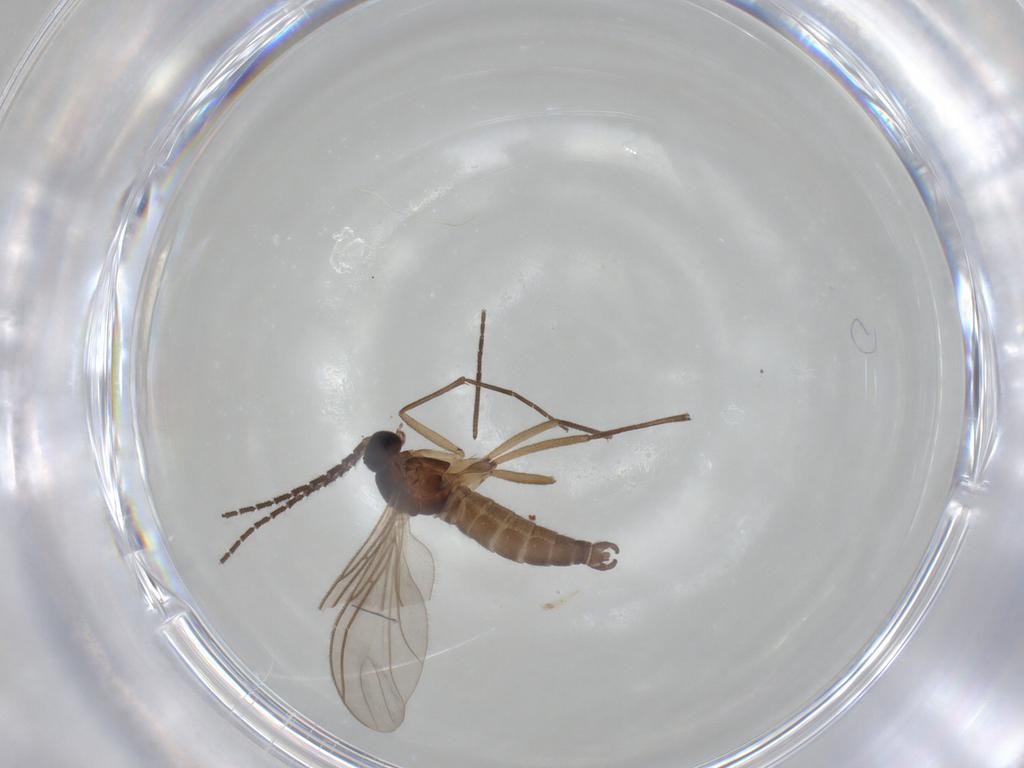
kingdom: Animalia
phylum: Arthropoda
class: Insecta
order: Diptera
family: Sciaridae
